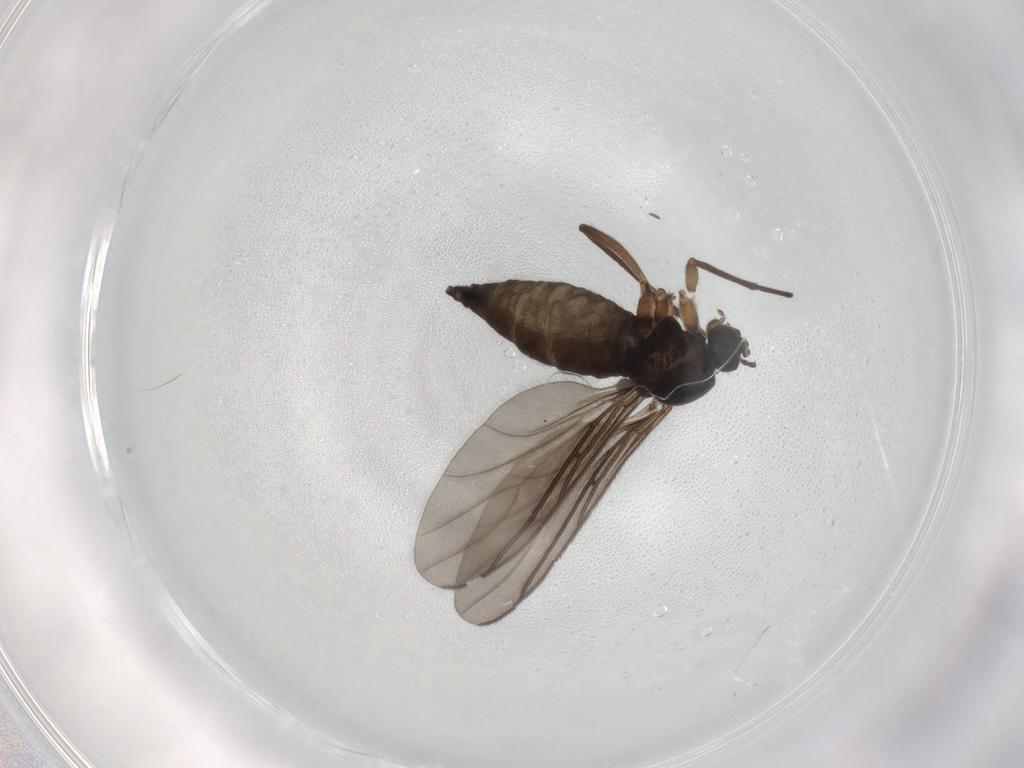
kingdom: Animalia
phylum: Arthropoda
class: Insecta
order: Diptera
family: Sciaridae
